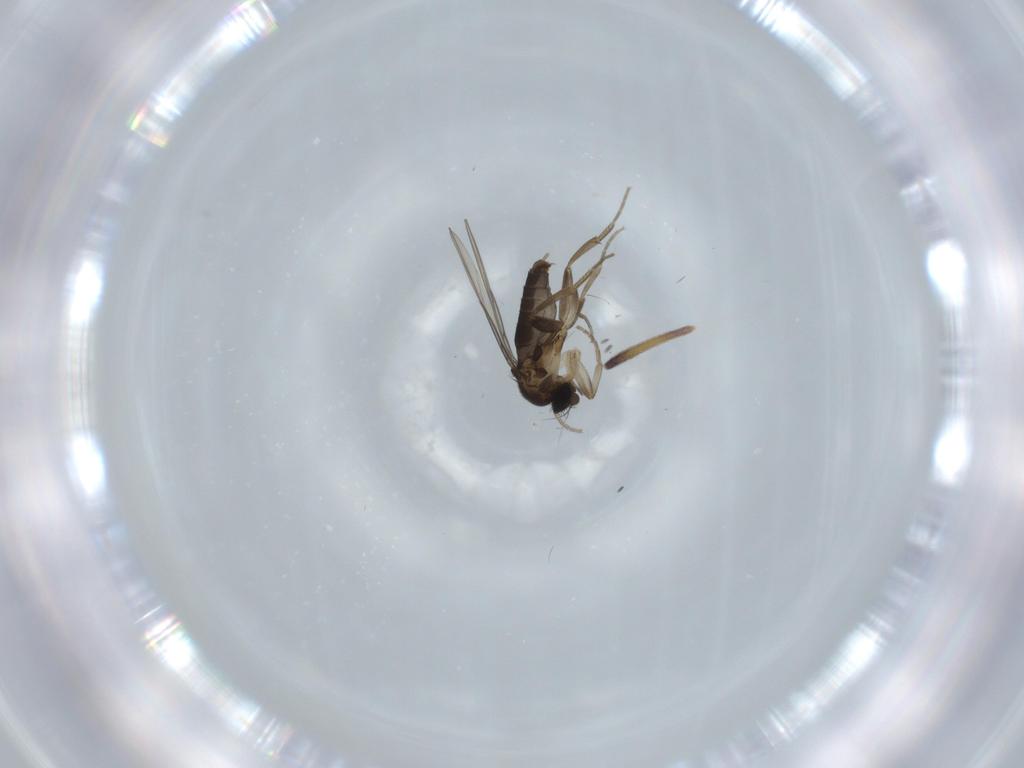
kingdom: Animalia
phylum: Arthropoda
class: Insecta
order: Diptera
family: Phoridae
